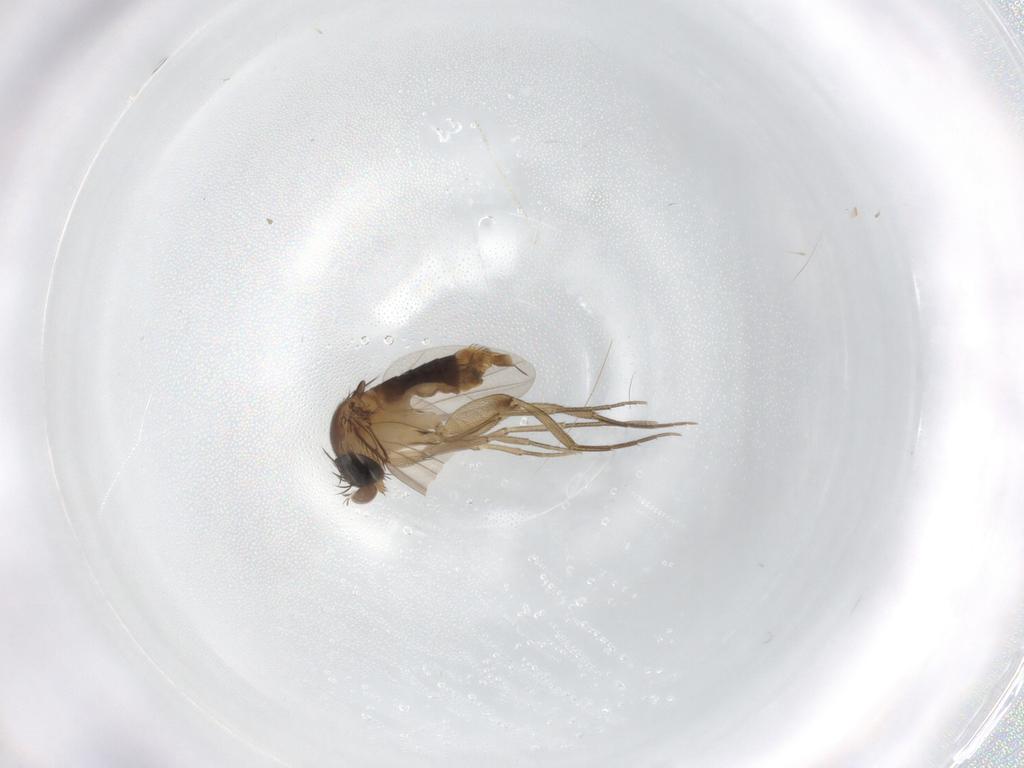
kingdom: Animalia
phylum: Arthropoda
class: Insecta
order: Diptera
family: Phoridae
